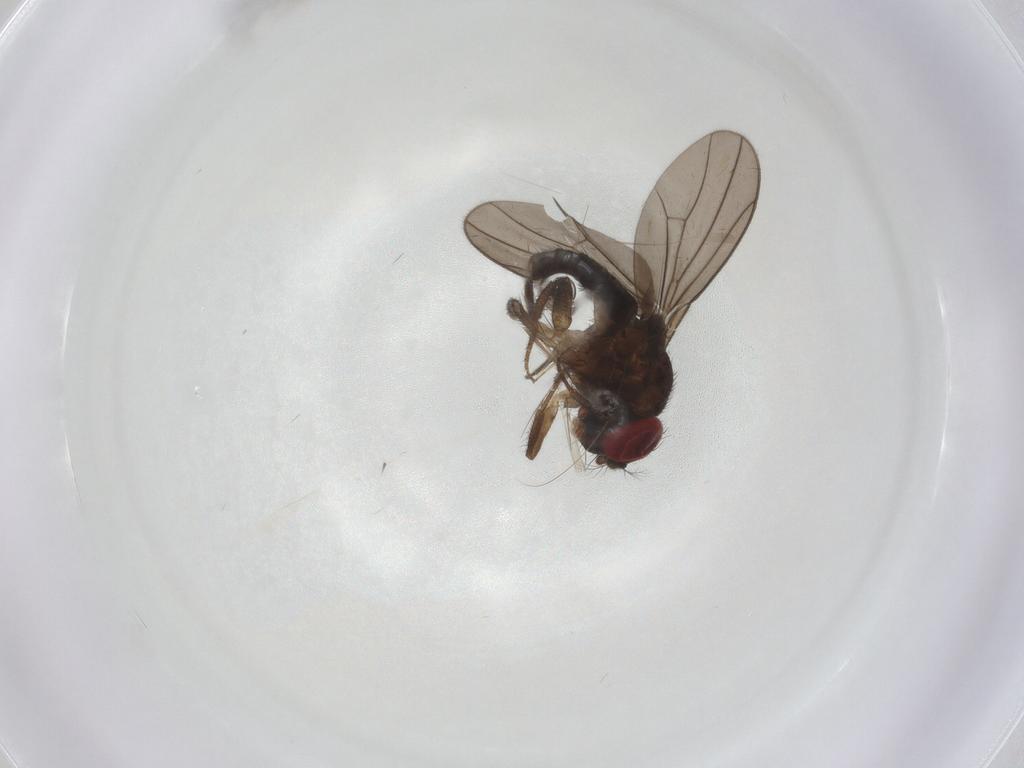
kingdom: Animalia
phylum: Arthropoda
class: Insecta
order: Diptera
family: Drosophilidae
